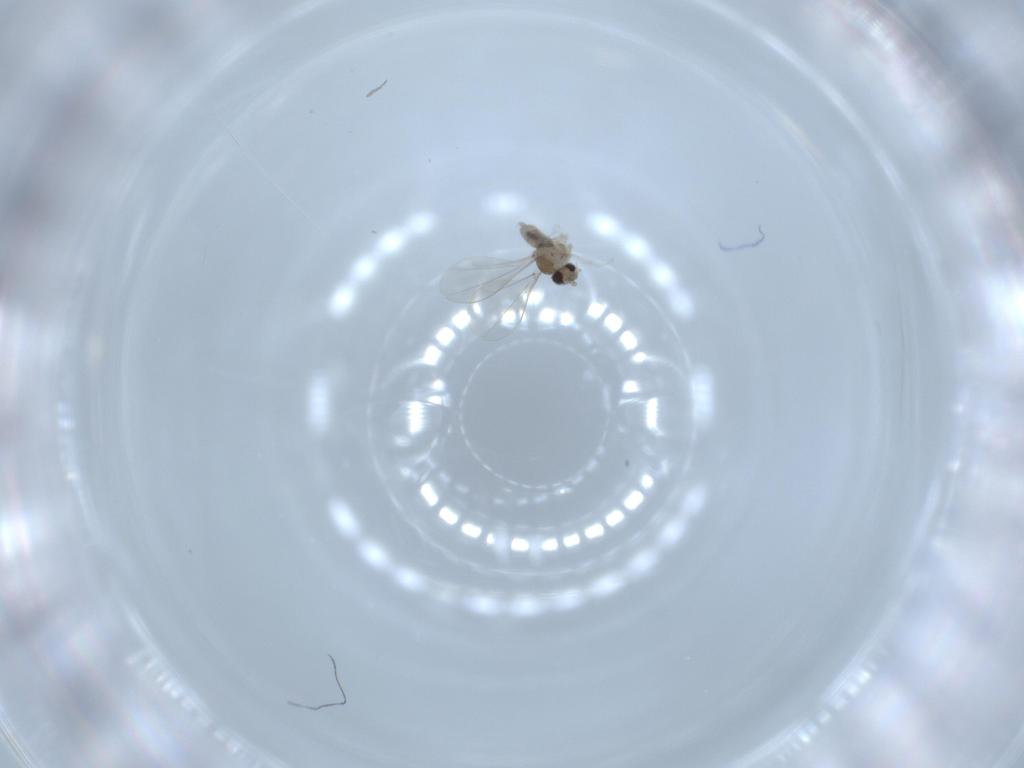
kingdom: Animalia
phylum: Arthropoda
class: Insecta
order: Diptera
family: Cecidomyiidae
